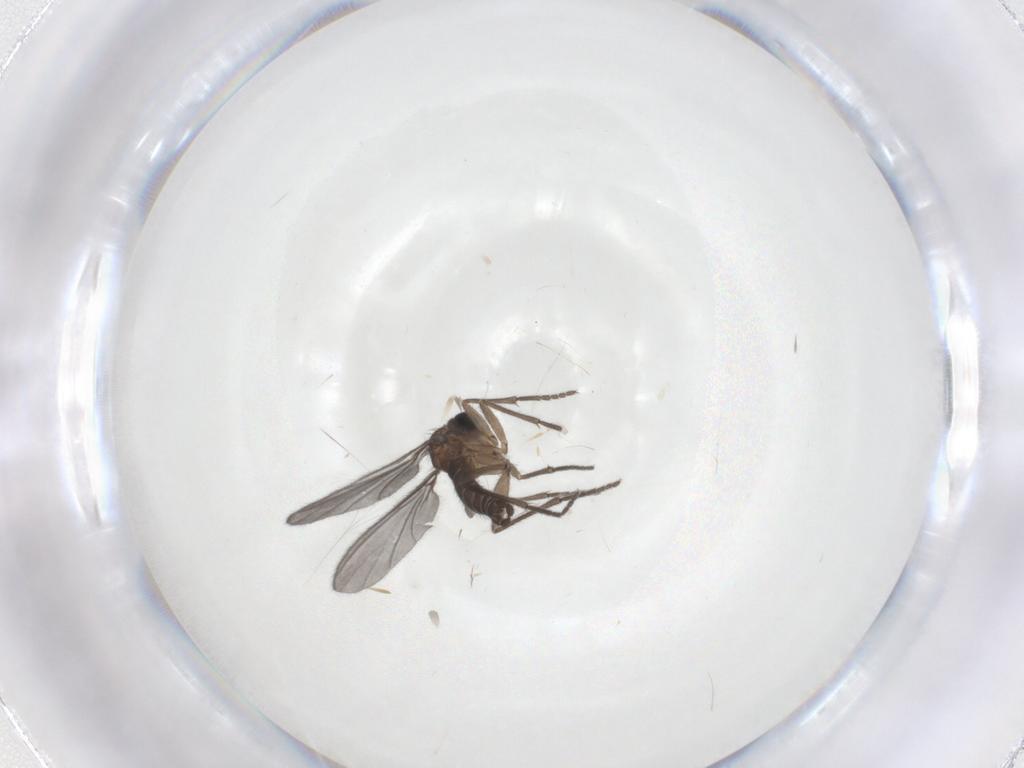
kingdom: Animalia
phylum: Arthropoda
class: Insecta
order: Diptera
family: Sciaridae
